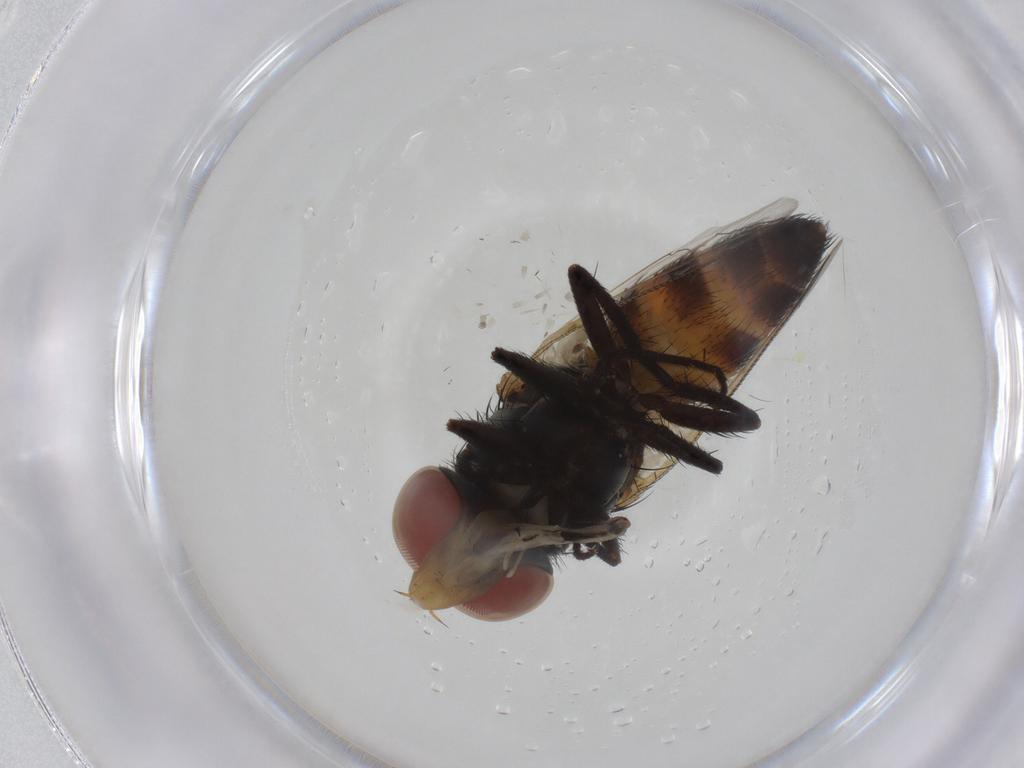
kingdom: Animalia
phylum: Arthropoda
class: Insecta
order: Diptera
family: Sarcophagidae
